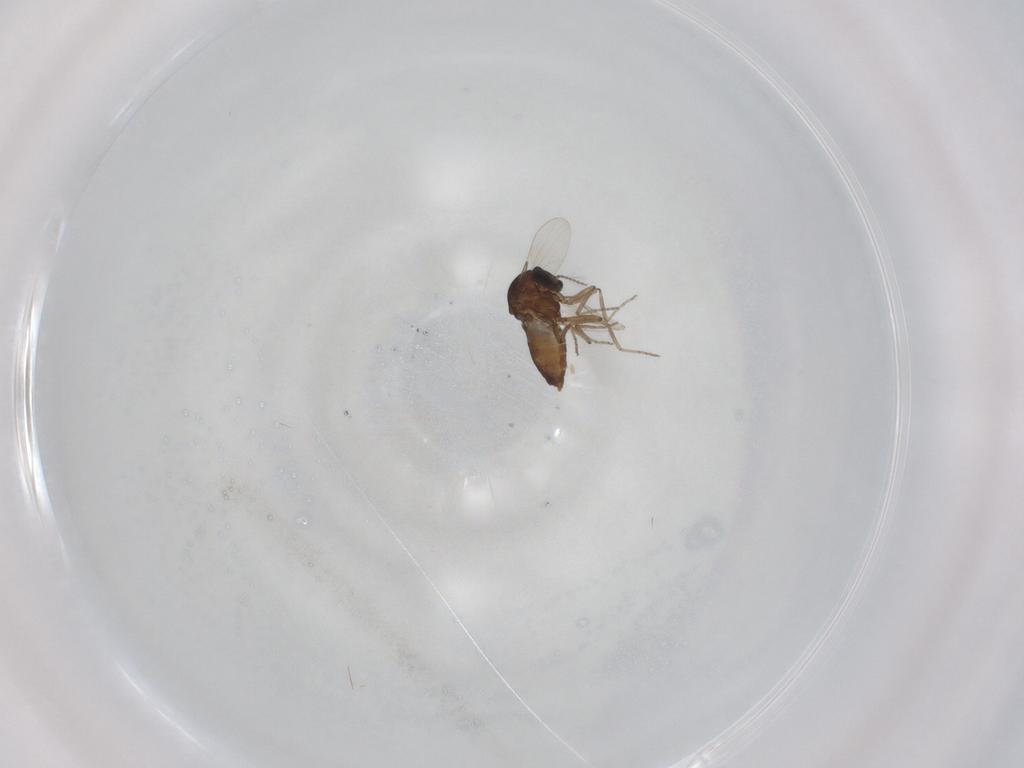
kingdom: Animalia
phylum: Arthropoda
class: Insecta
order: Diptera
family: Ceratopogonidae
